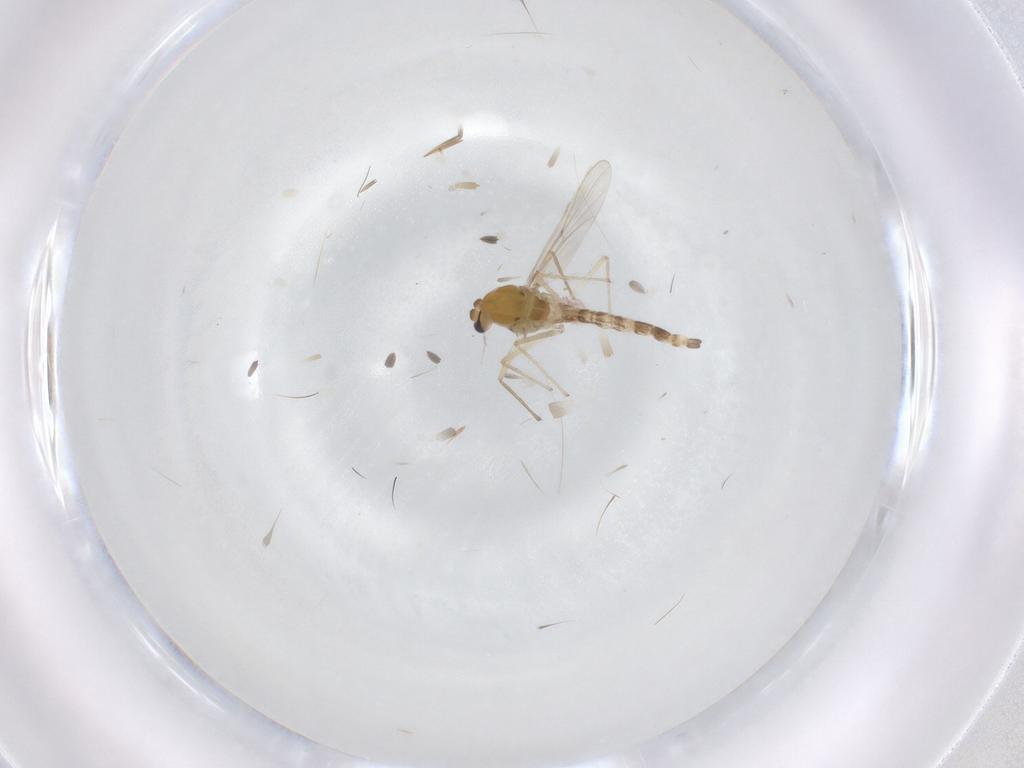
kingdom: Animalia
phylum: Arthropoda
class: Insecta
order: Diptera
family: Chironomidae
